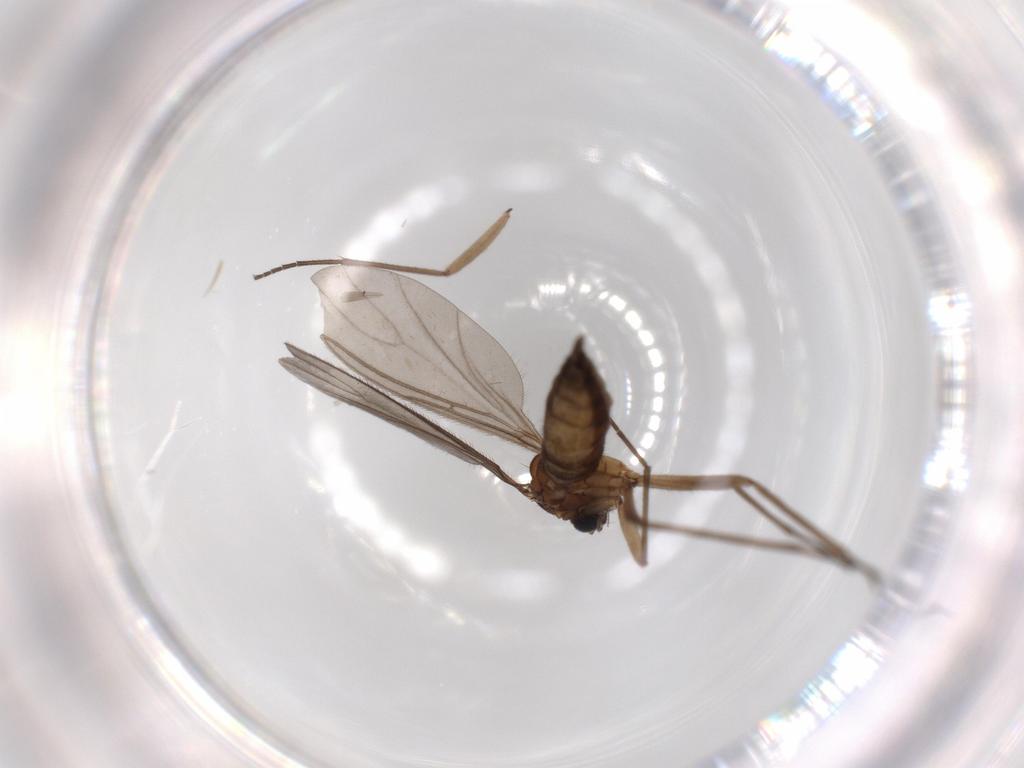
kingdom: Animalia
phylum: Arthropoda
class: Insecta
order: Diptera
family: Sciaridae
